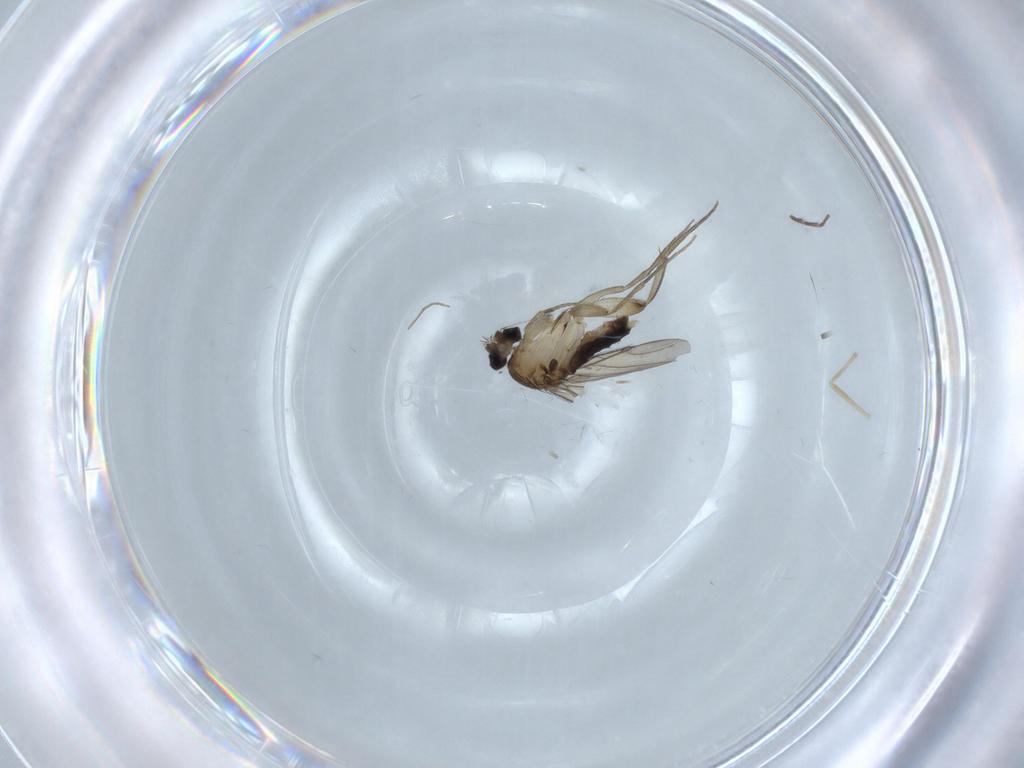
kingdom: Animalia
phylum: Arthropoda
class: Insecta
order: Diptera
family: Phoridae
